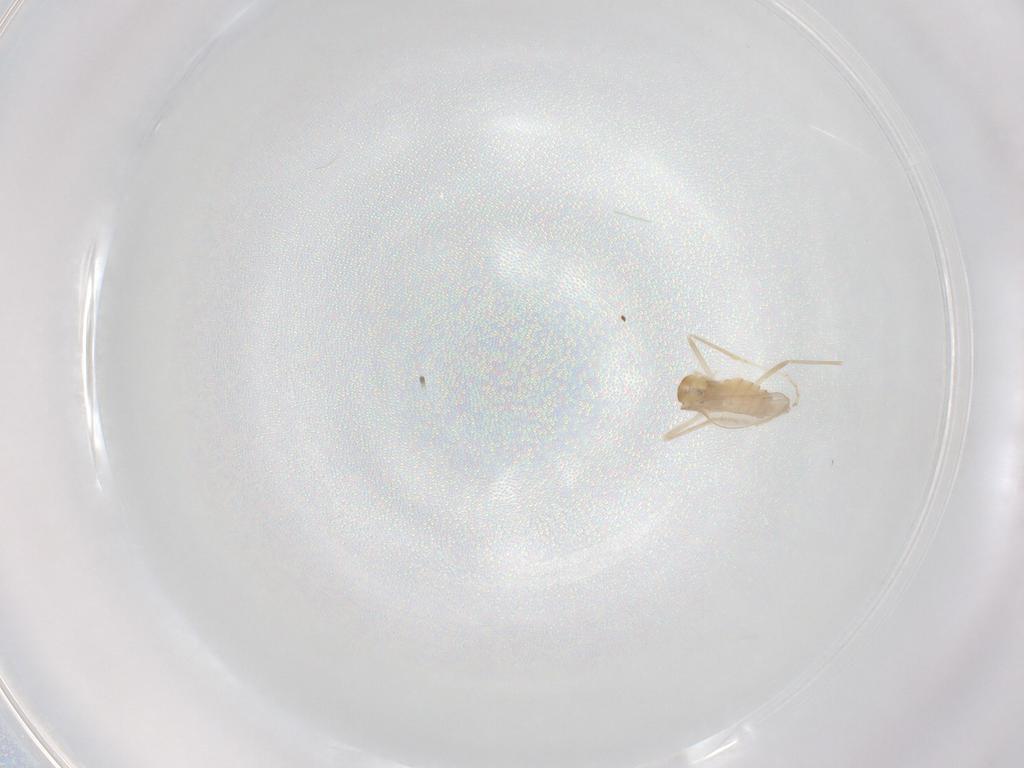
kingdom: Animalia
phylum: Arthropoda
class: Insecta
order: Diptera
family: Cecidomyiidae
